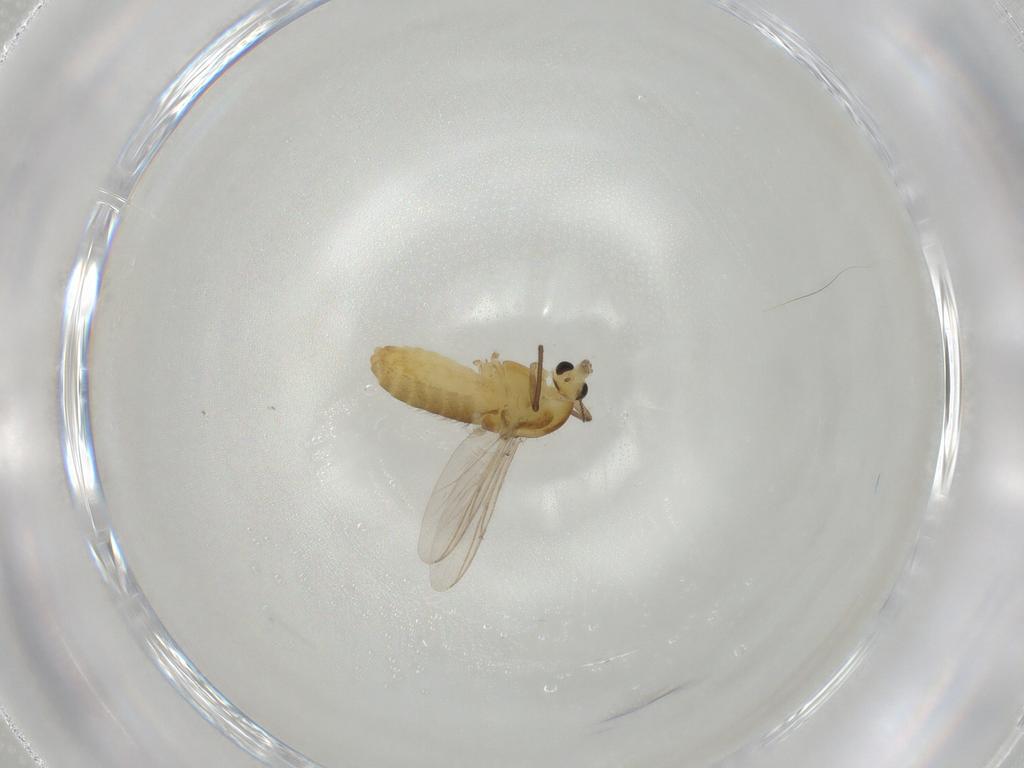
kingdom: Animalia
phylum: Arthropoda
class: Insecta
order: Diptera
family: Chironomidae
